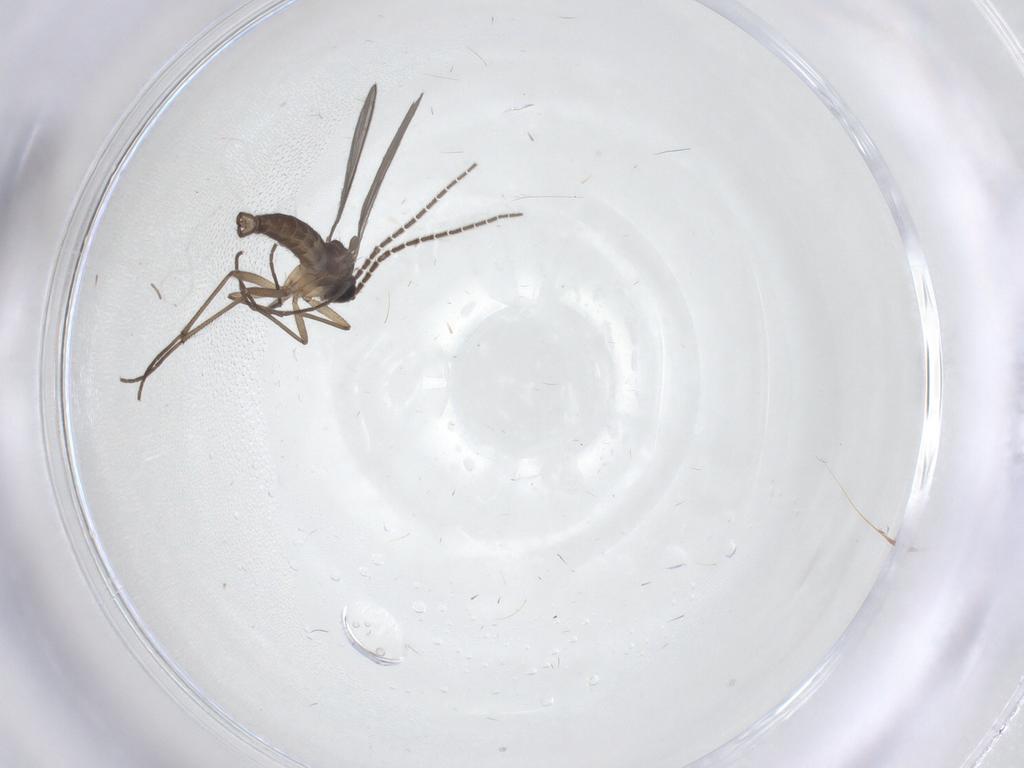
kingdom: Animalia
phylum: Arthropoda
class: Insecta
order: Diptera
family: Sciaridae
